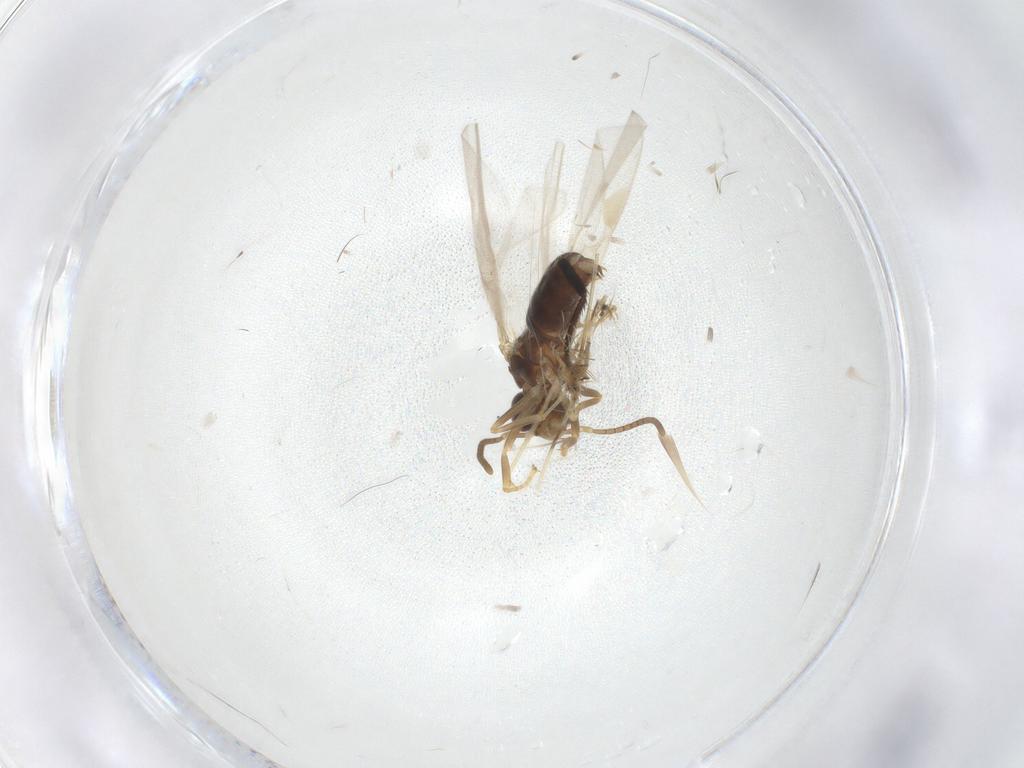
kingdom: Animalia
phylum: Arthropoda
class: Insecta
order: Hymenoptera
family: Formicidae
